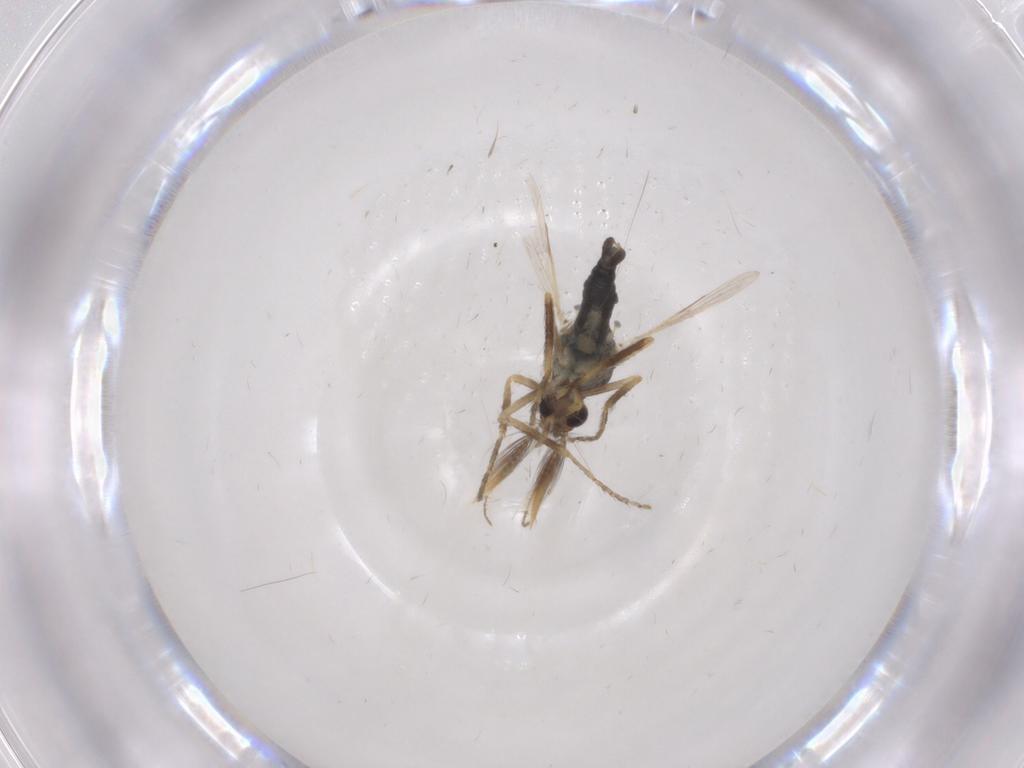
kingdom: Animalia
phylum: Arthropoda
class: Insecta
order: Diptera
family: Ceratopogonidae
